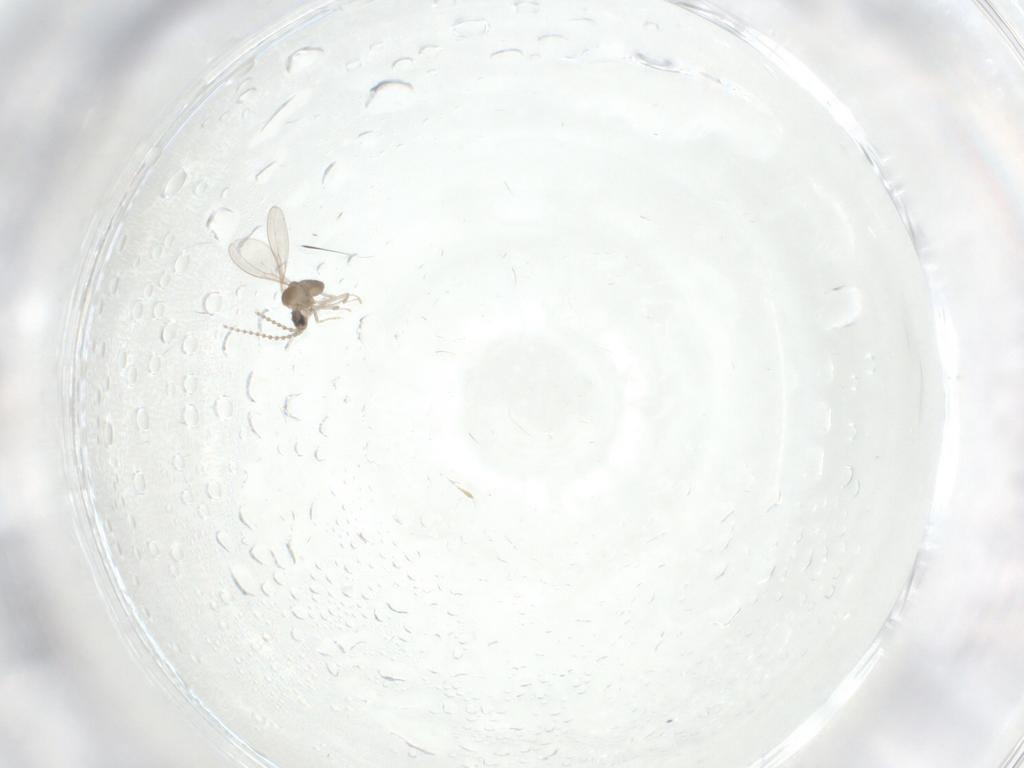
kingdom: Animalia
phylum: Arthropoda
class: Insecta
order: Diptera
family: Cecidomyiidae
